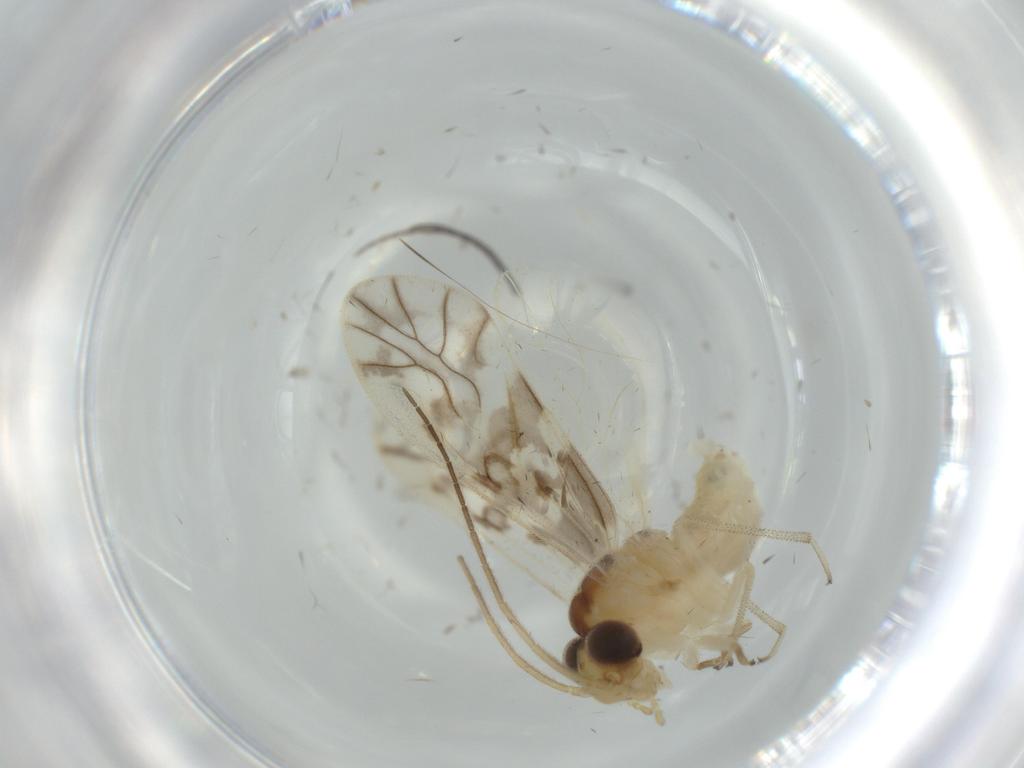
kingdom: Animalia
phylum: Arthropoda
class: Insecta
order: Psocodea
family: Caeciliusidae
